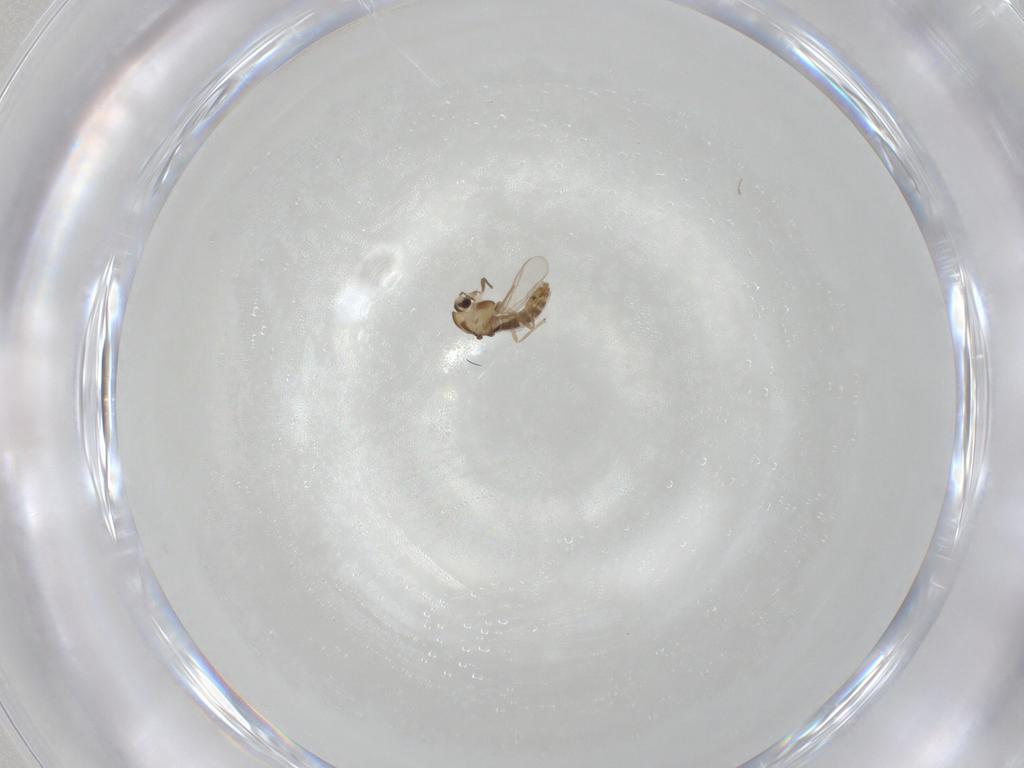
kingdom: Animalia
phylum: Arthropoda
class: Insecta
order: Diptera
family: Chironomidae
